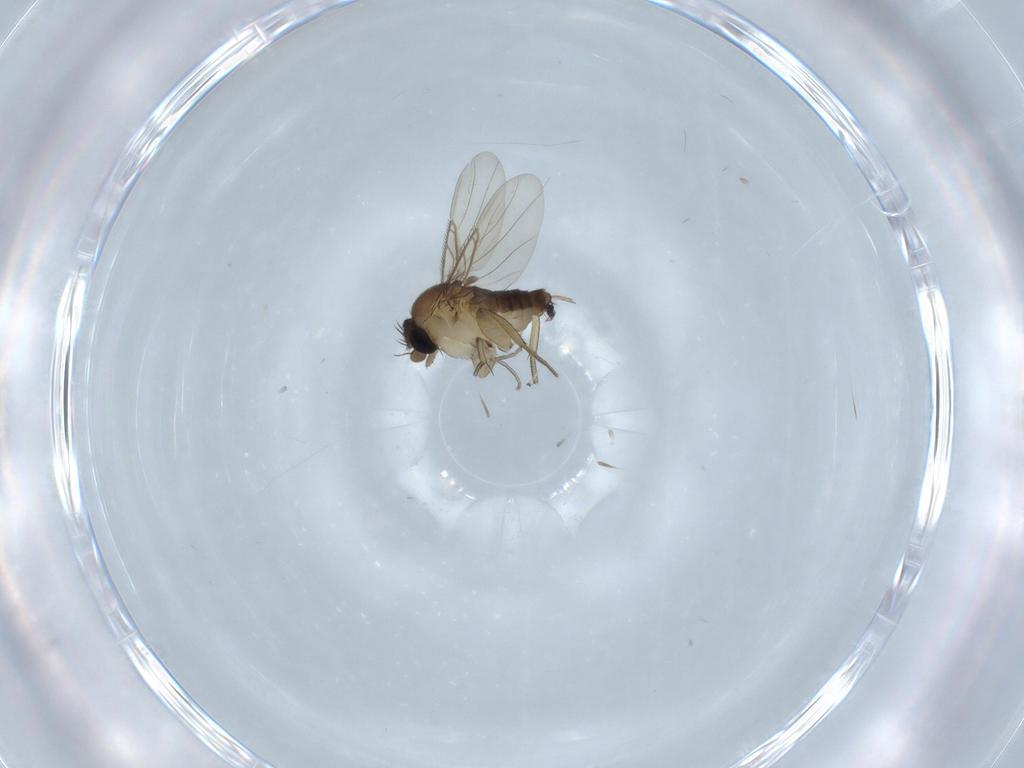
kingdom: Animalia
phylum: Arthropoda
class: Insecta
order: Diptera
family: Phoridae
